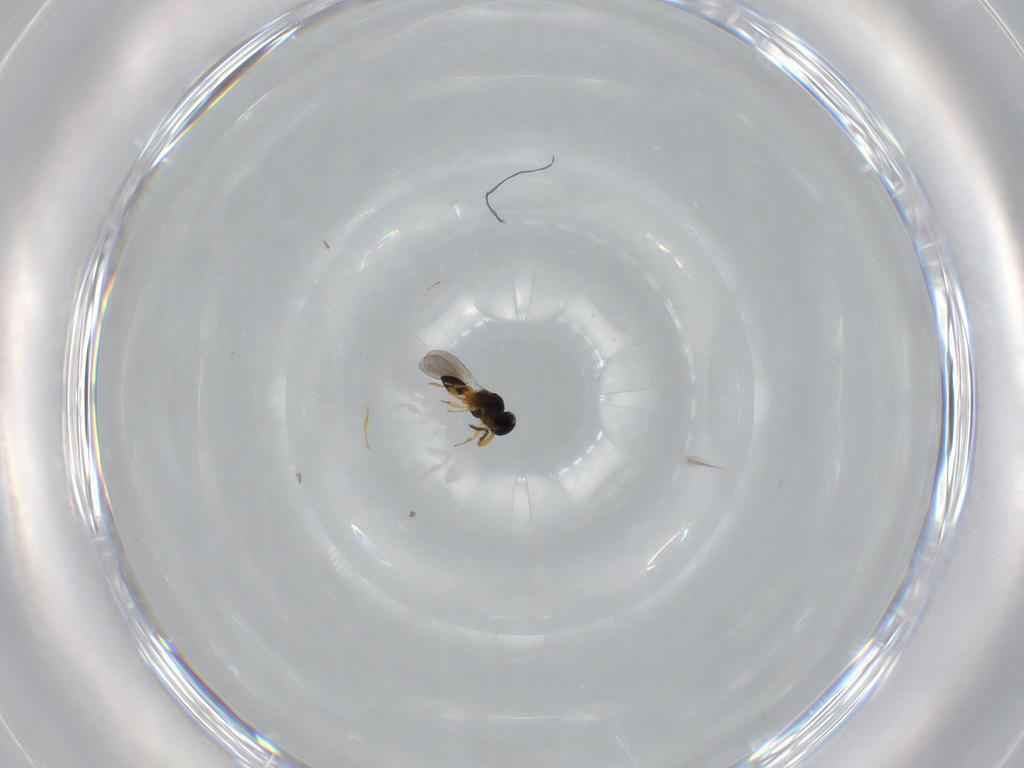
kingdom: Animalia
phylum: Arthropoda
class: Insecta
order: Hymenoptera
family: Platygastridae
